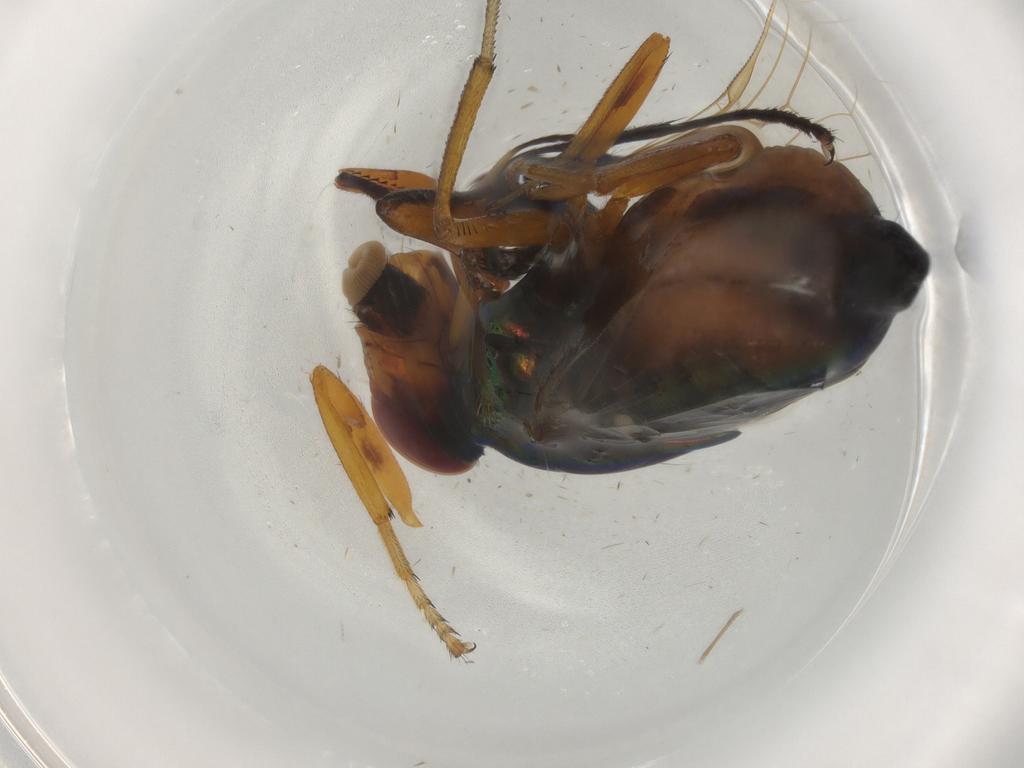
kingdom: Animalia
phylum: Arthropoda
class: Insecta
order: Diptera
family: Ulidiidae
